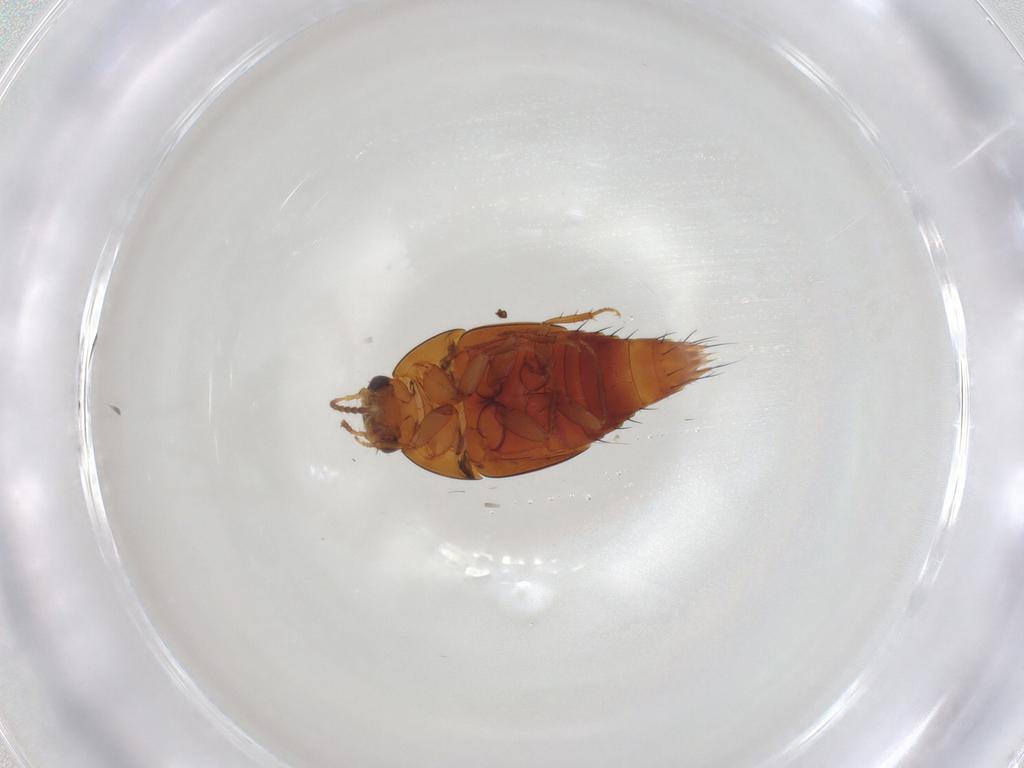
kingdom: Animalia
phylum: Arthropoda
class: Insecta
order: Coleoptera
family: Staphylinidae
